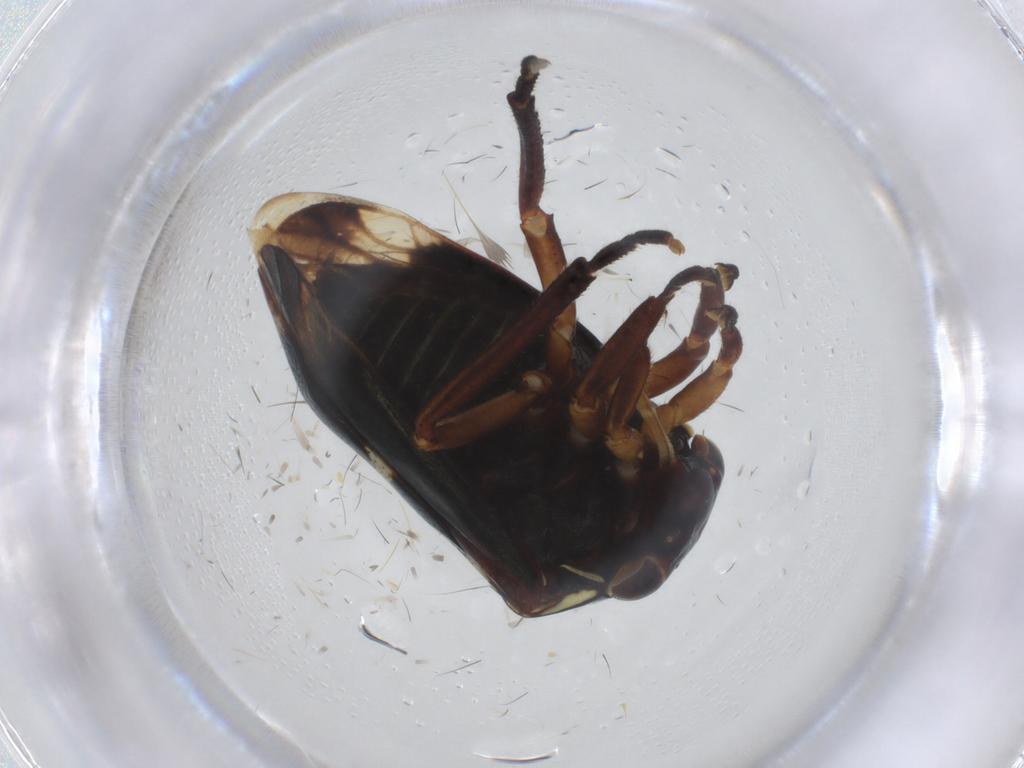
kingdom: Animalia
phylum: Arthropoda
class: Insecta
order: Hemiptera
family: Membracidae
